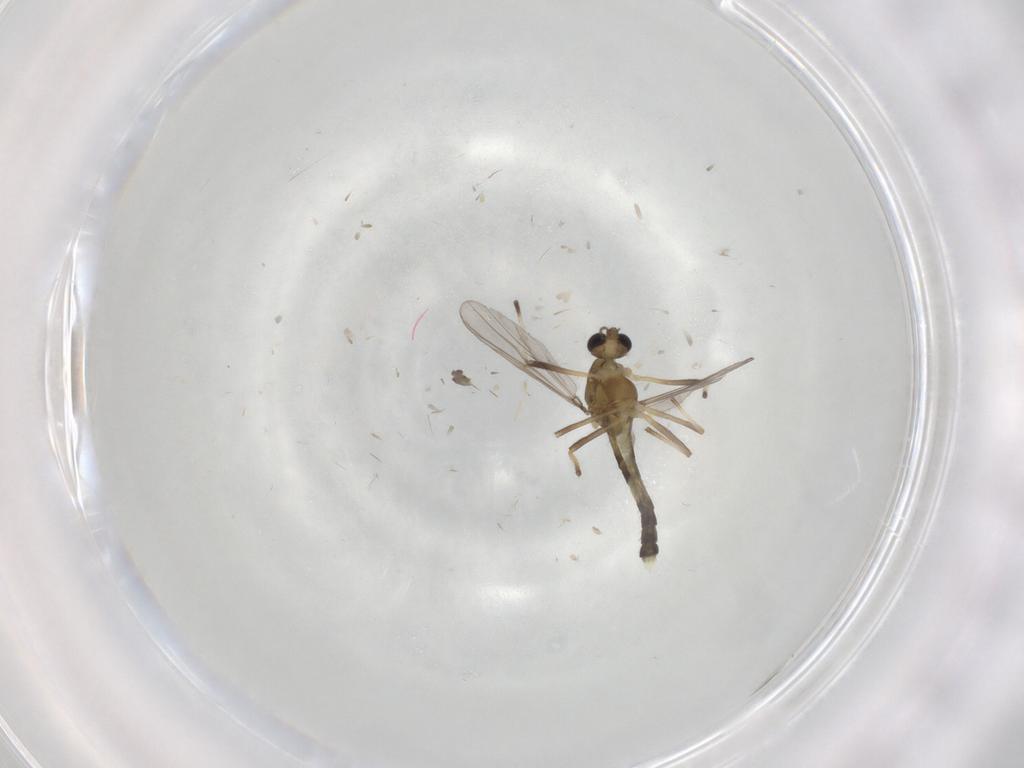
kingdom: Animalia
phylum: Arthropoda
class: Insecta
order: Diptera
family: Chironomidae
